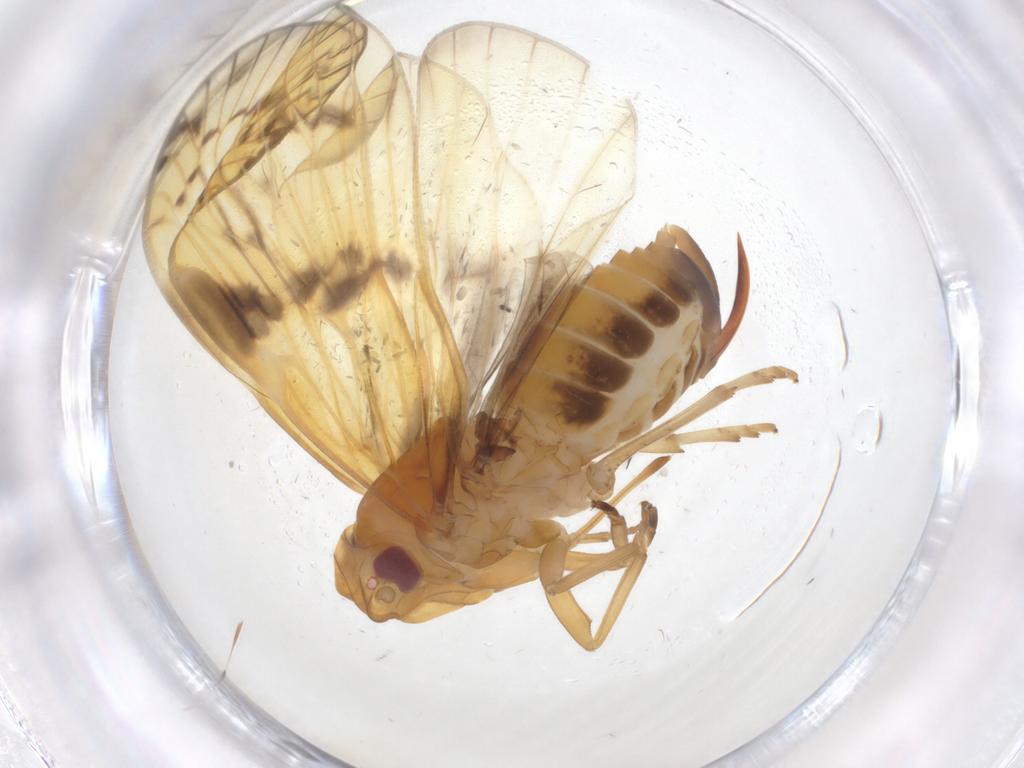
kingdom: Animalia
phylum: Arthropoda
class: Insecta
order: Hemiptera
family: Cixiidae
